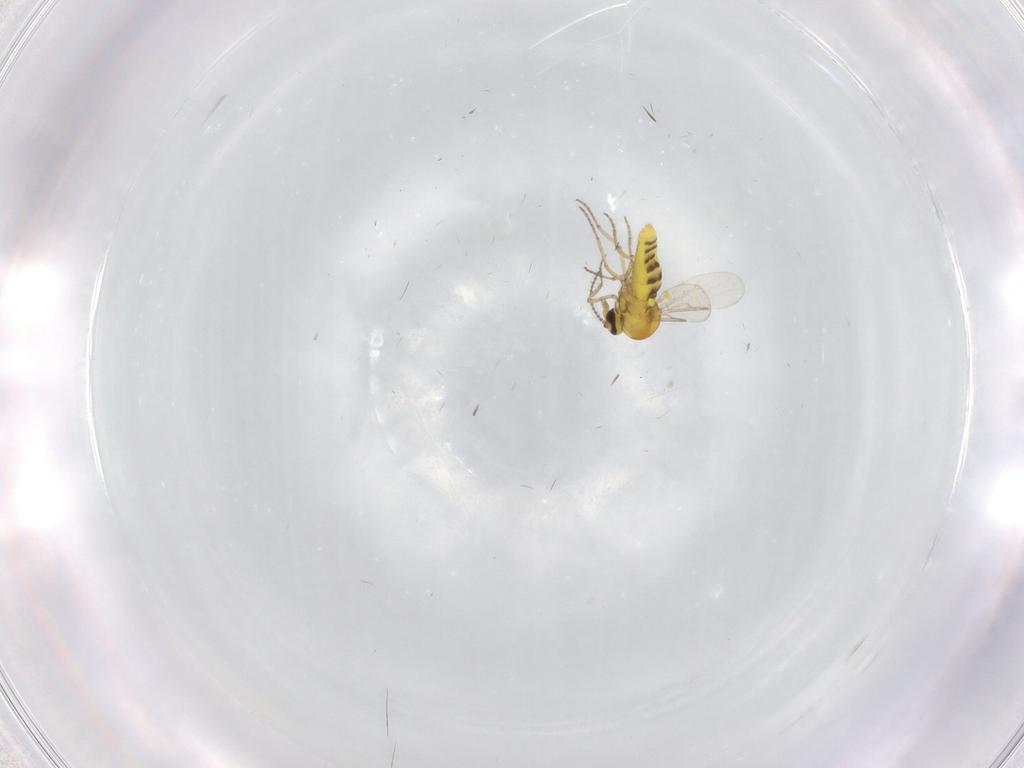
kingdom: Animalia
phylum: Arthropoda
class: Insecta
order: Diptera
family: Ceratopogonidae
